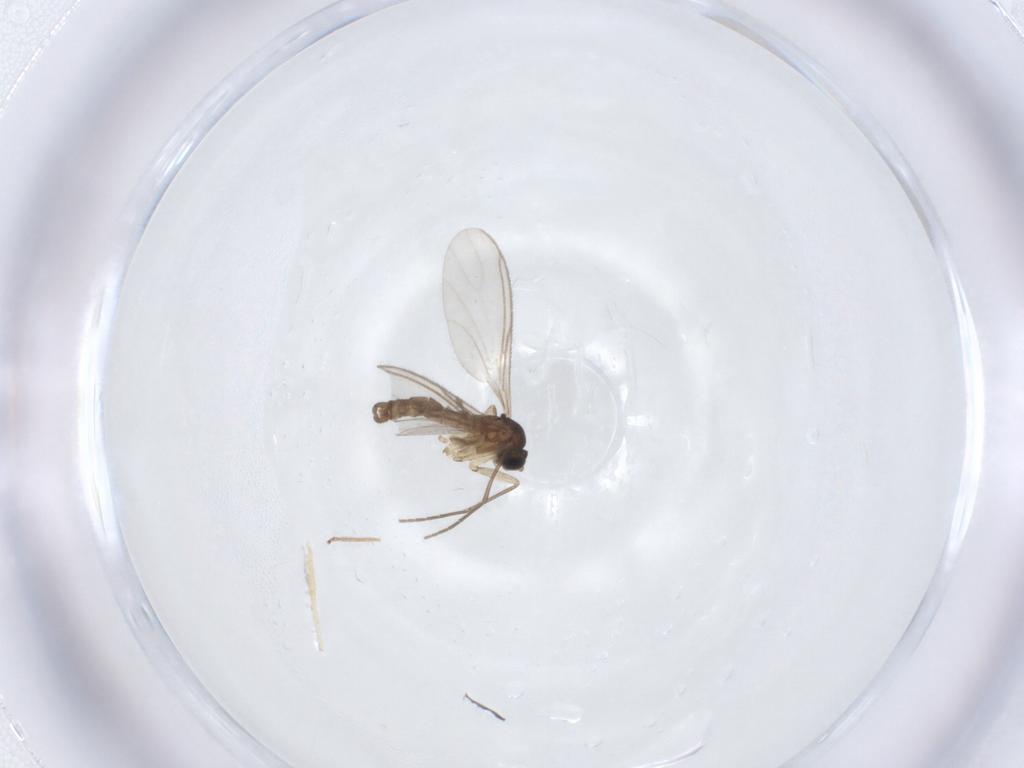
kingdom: Animalia
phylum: Arthropoda
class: Insecta
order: Diptera
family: Sciaridae
